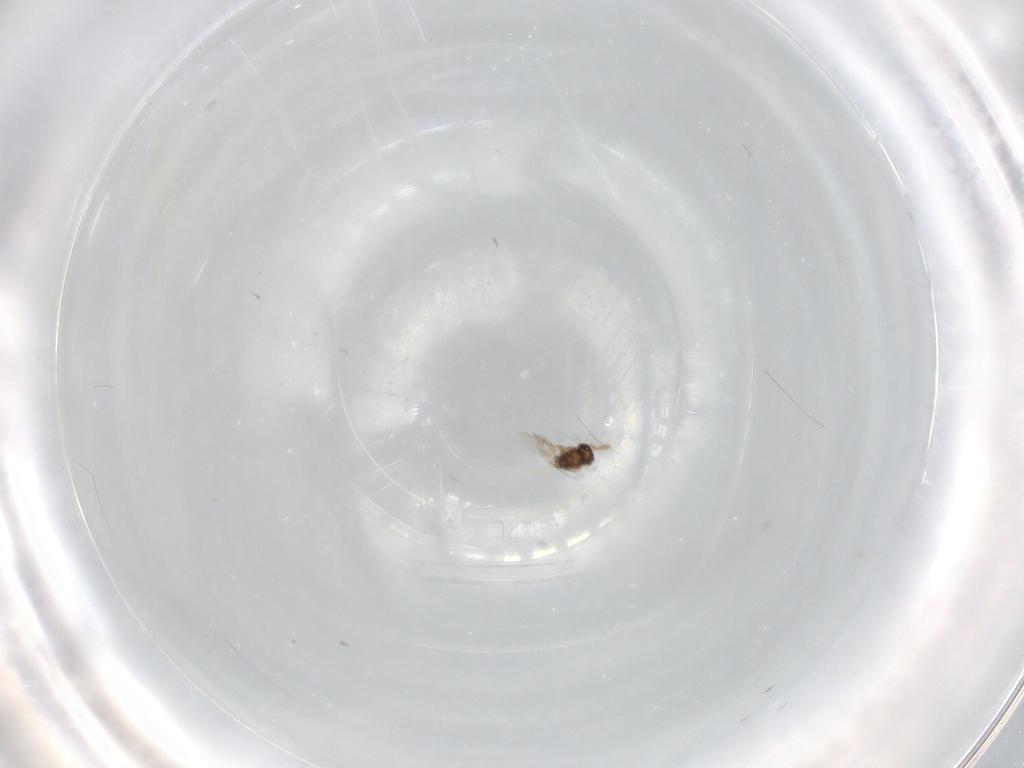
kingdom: Animalia
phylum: Arthropoda
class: Insecta
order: Hymenoptera
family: Encyrtidae
